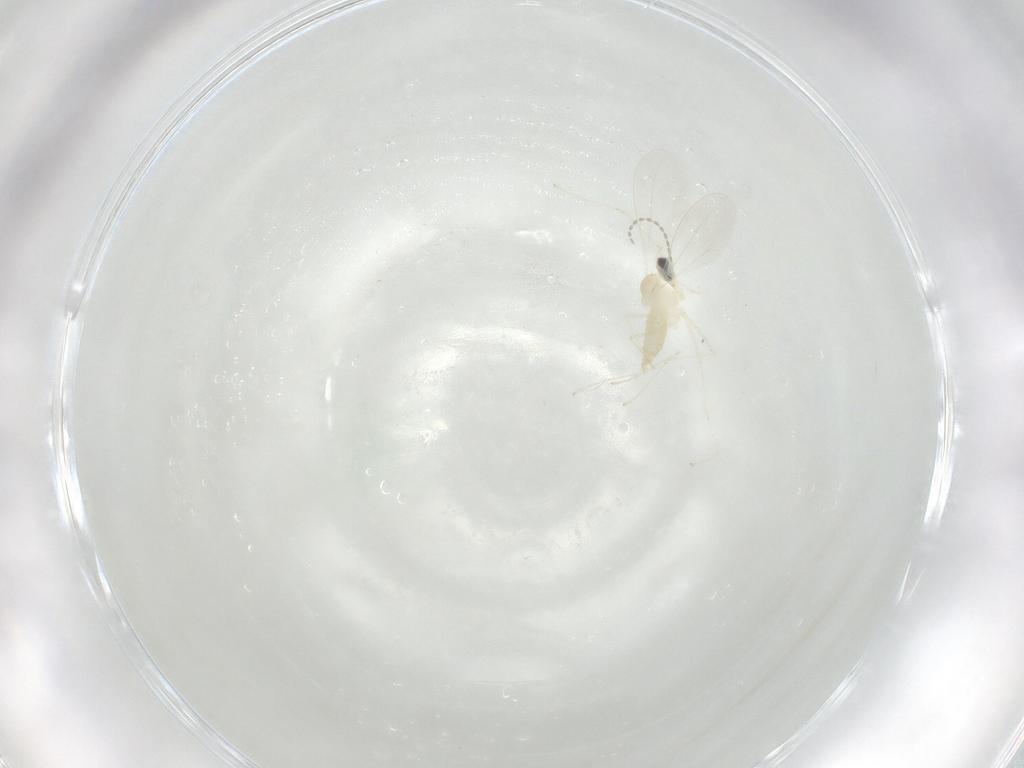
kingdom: Animalia
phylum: Arthropoda
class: Insecta
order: Diptera
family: Cecidomyiidae
